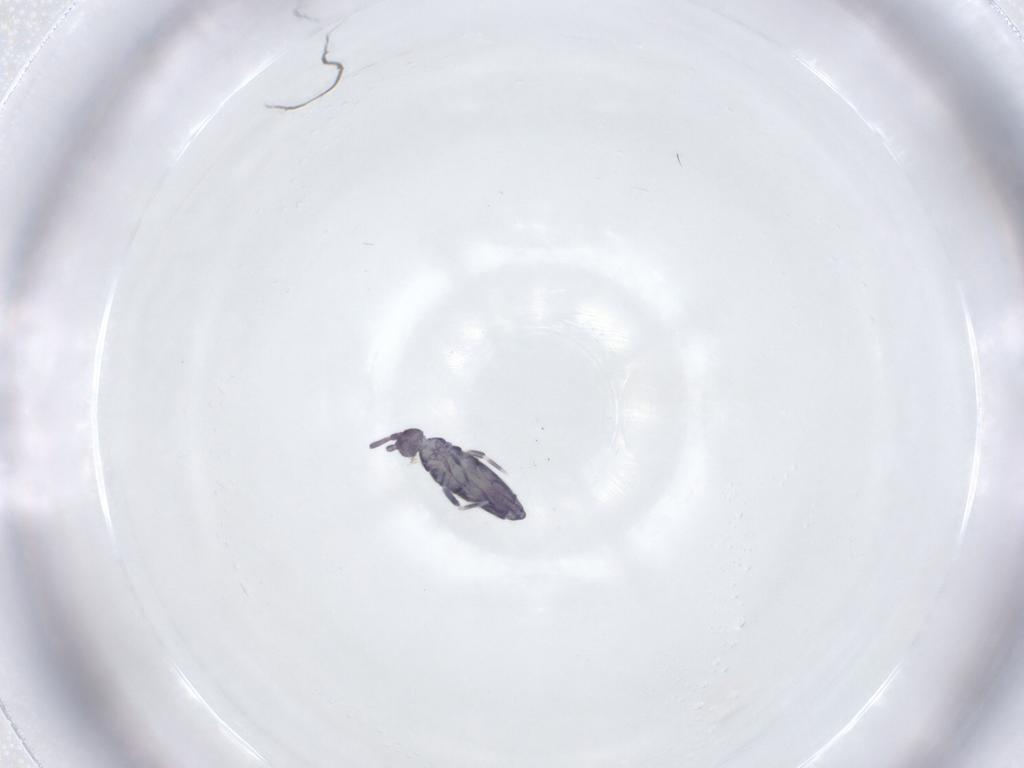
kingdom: Animalia
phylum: Arthropoda
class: Collembola
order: Entomobryomorpha
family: Entomobryidae
